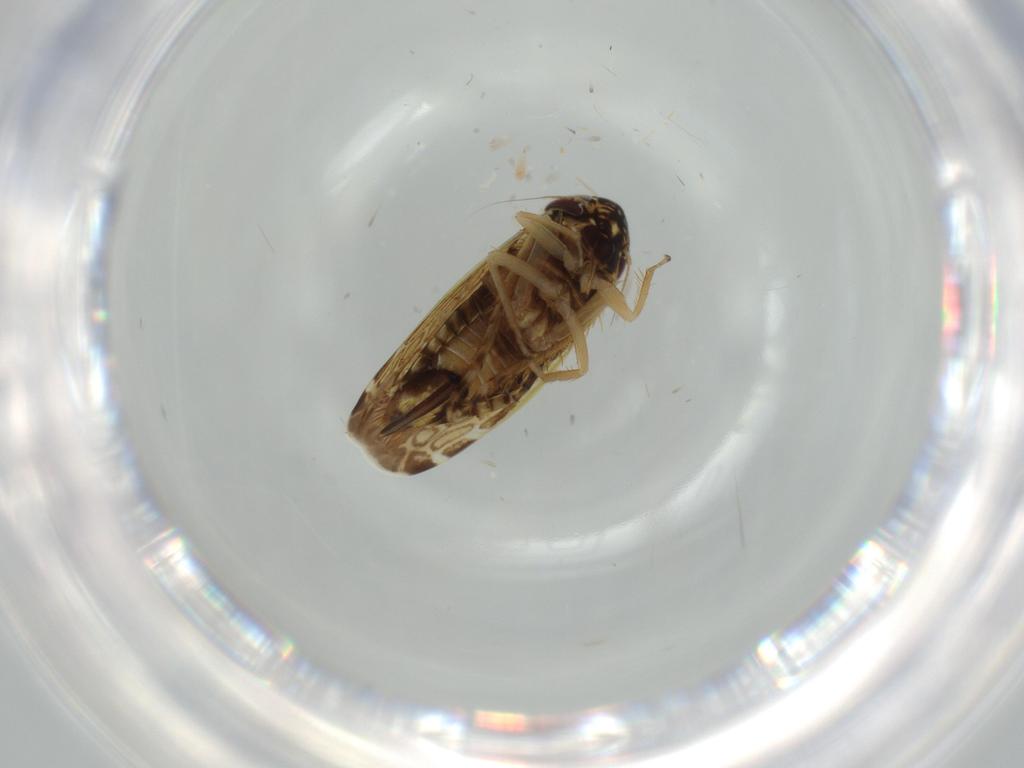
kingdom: Animalia
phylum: Arthropoda
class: Insecta
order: Hemiptera
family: Cicadellidae
